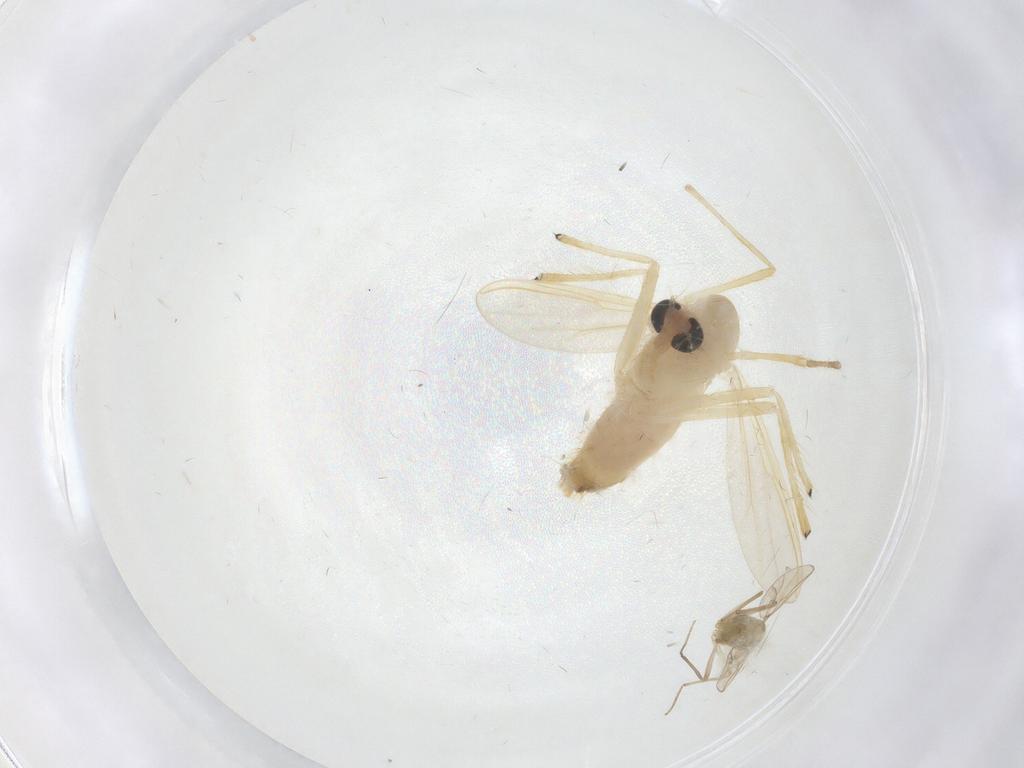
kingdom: Animalia
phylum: Arthropoda
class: Insecta
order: Diptera
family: Chironomidae
